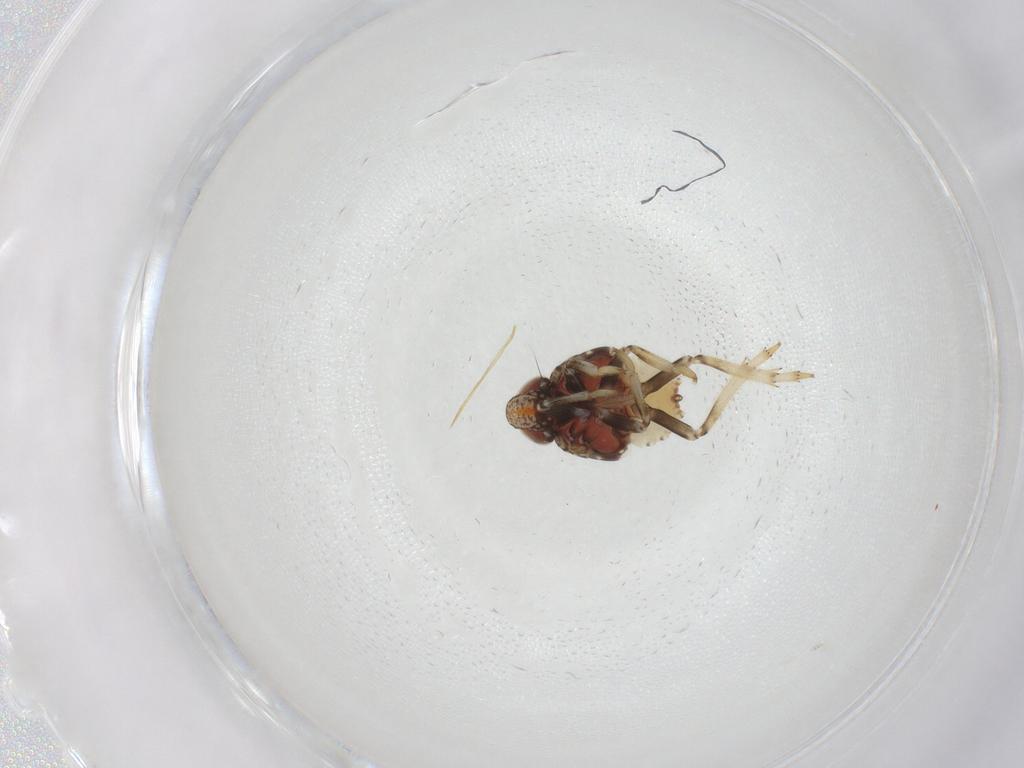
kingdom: Animalia
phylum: Arthropoda
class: Insecta
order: Hemiptera
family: Issidae
